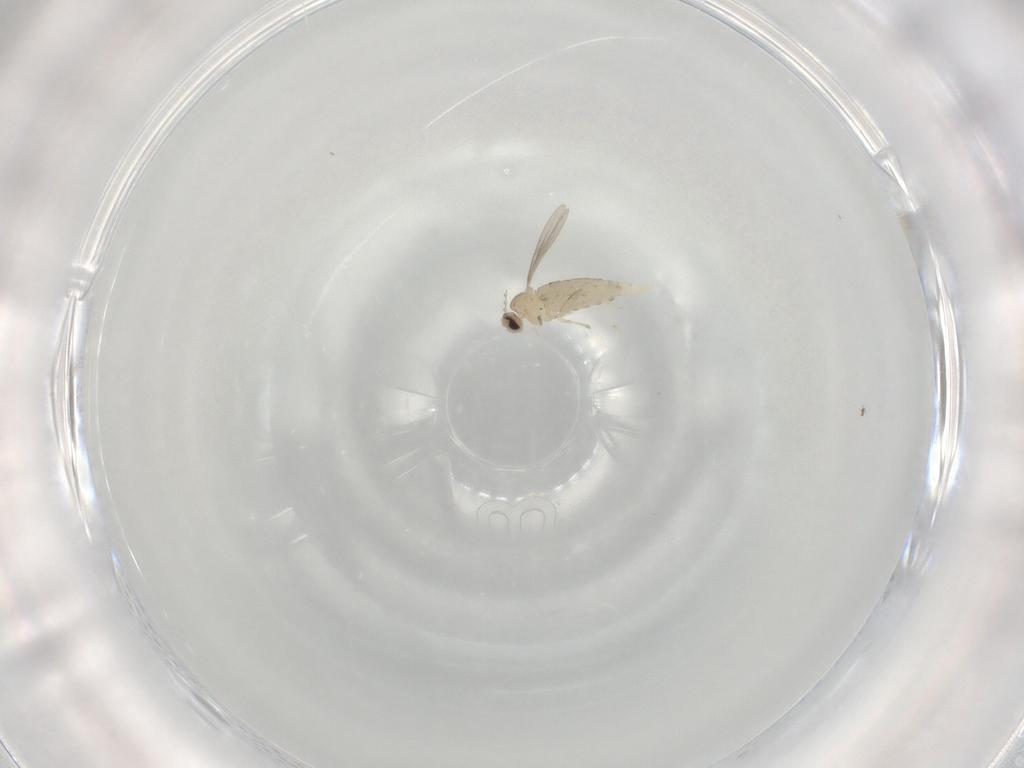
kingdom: Animalia
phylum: Arthropoda
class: Insecta
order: Diptera
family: Cecidomyiidae
